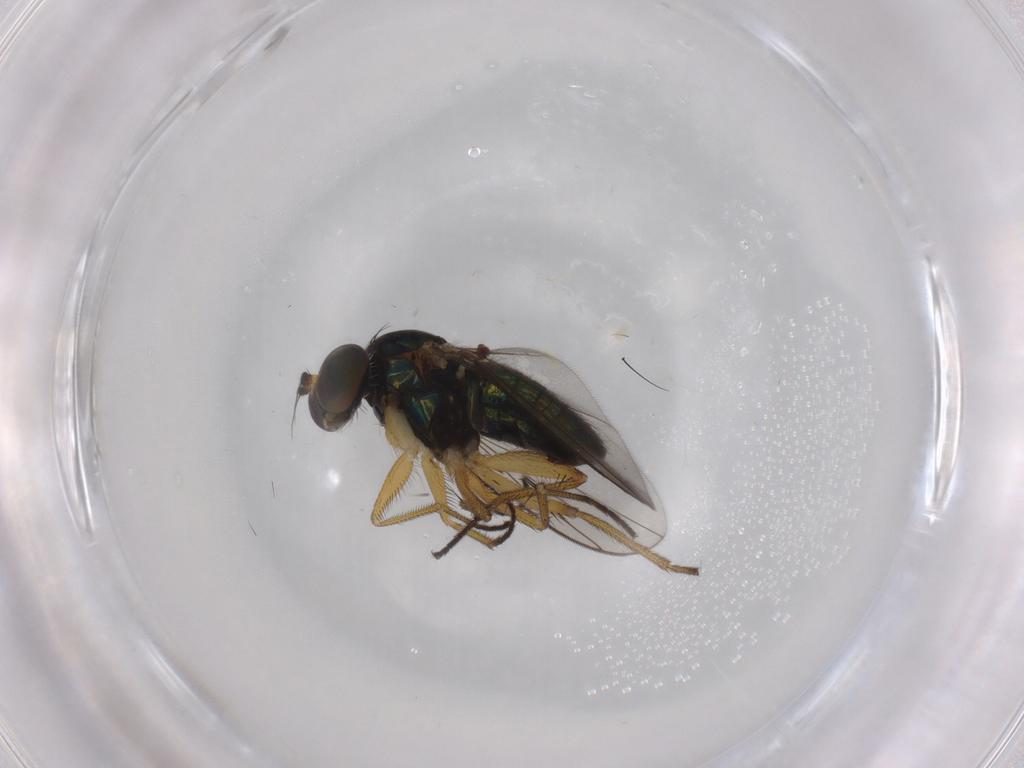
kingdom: Animalia
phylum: Arthropoda
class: Insecta
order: Diptera
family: Dolichopodidae
